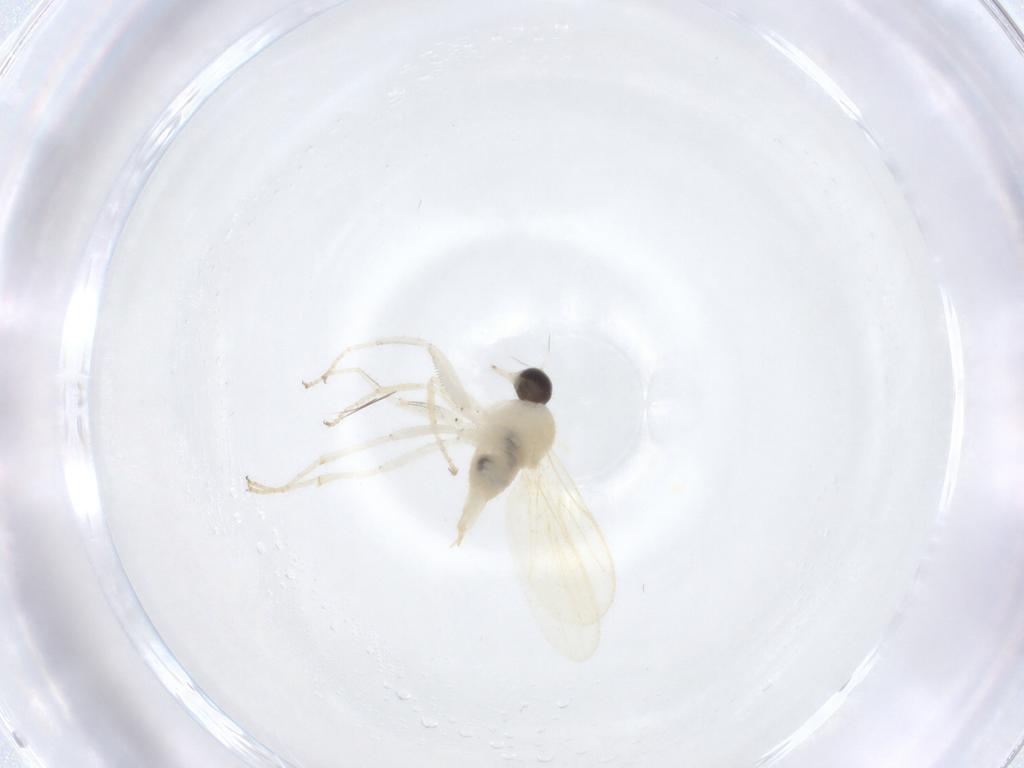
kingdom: Animalia
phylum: Arthropoda
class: Insecta
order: Diptera
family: Hybotidae
